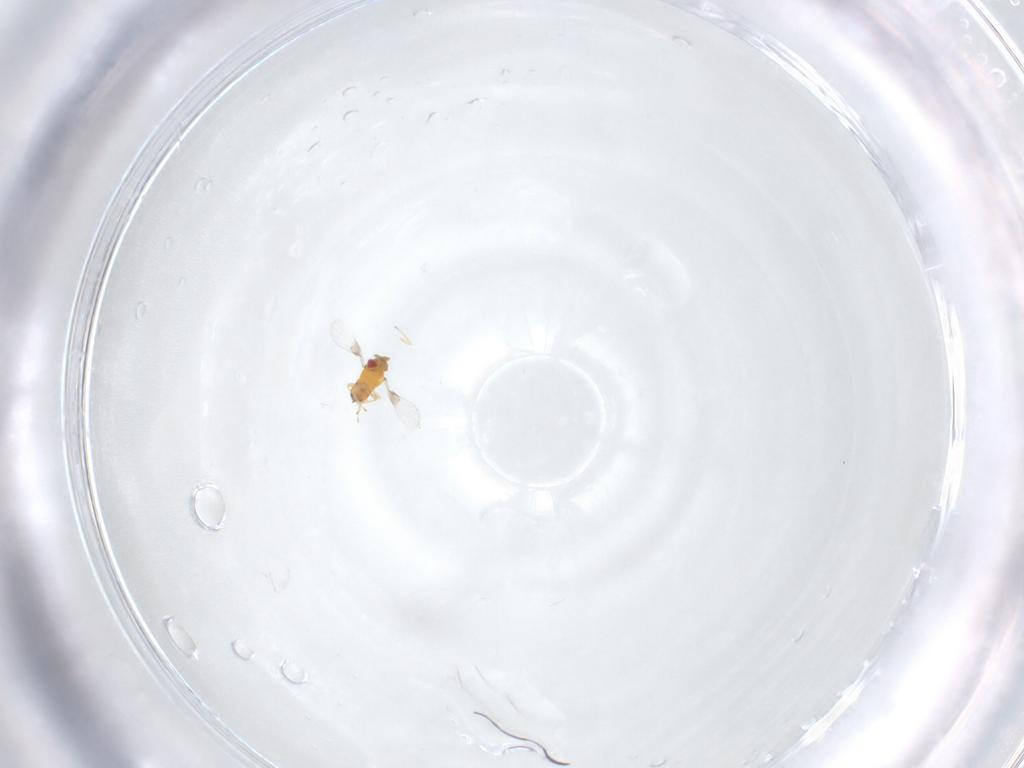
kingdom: Animalia
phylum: Arthropoda
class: Insecta
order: Hymenoptera
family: Trichogrammatidae
